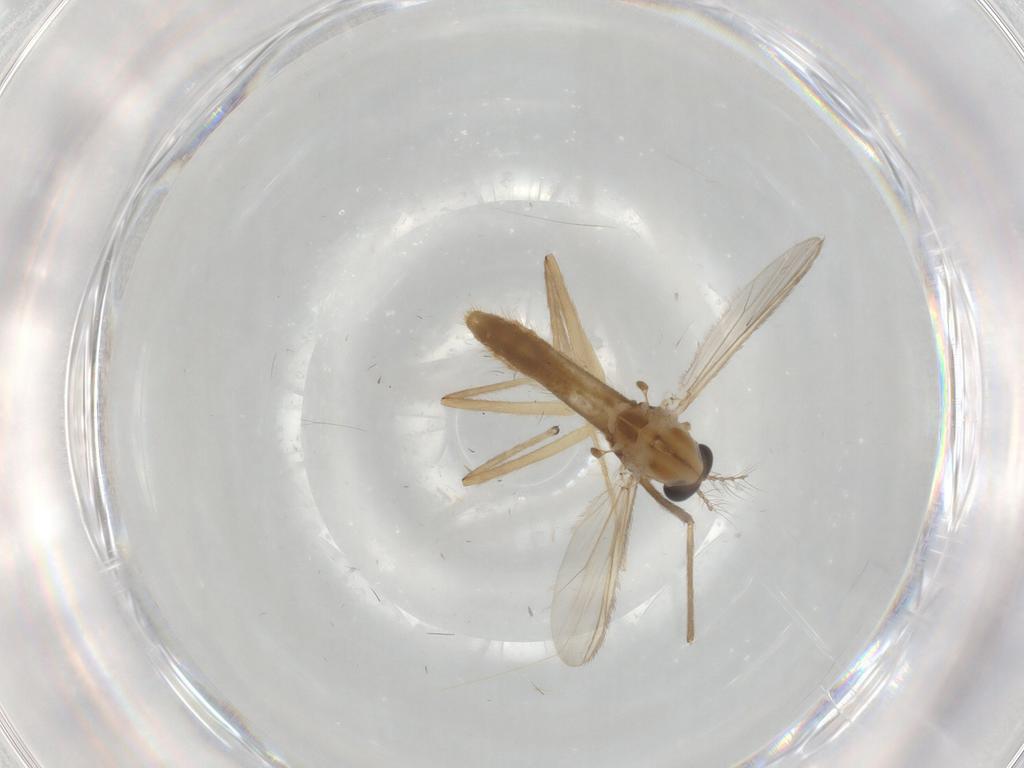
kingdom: Animalia
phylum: Arthropoda
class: Insecta
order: Diptera
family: Chironomidae
